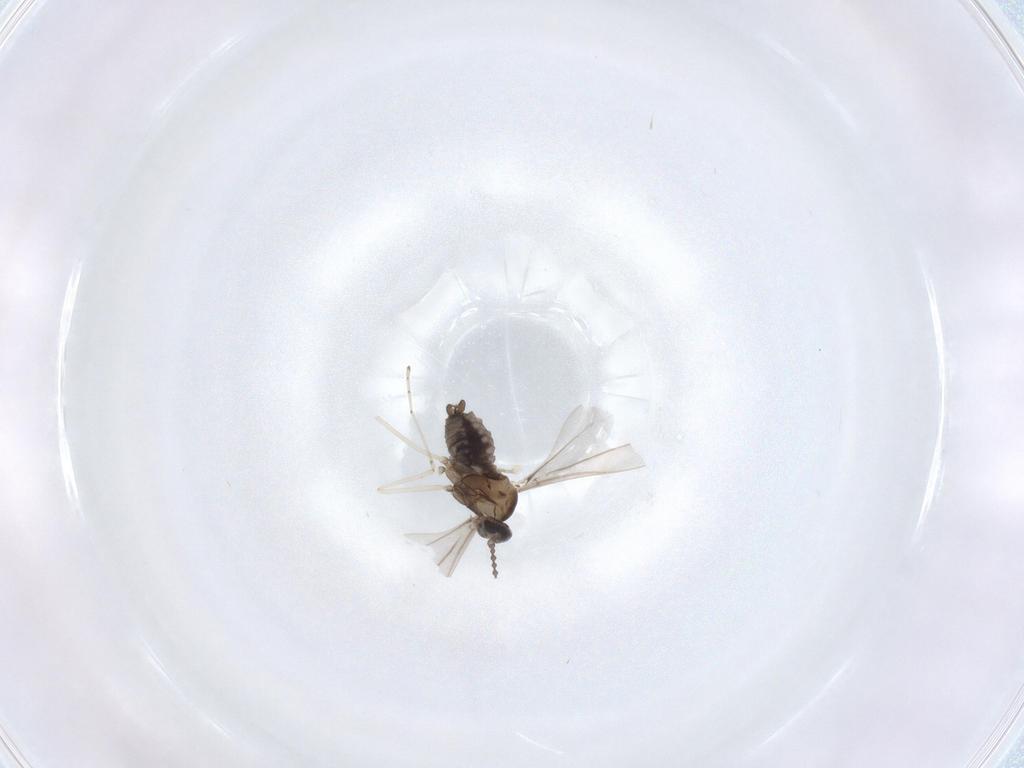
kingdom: Animalia
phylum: Arthropoda
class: Insecta
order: Diptera
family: Cecidomyiidae
